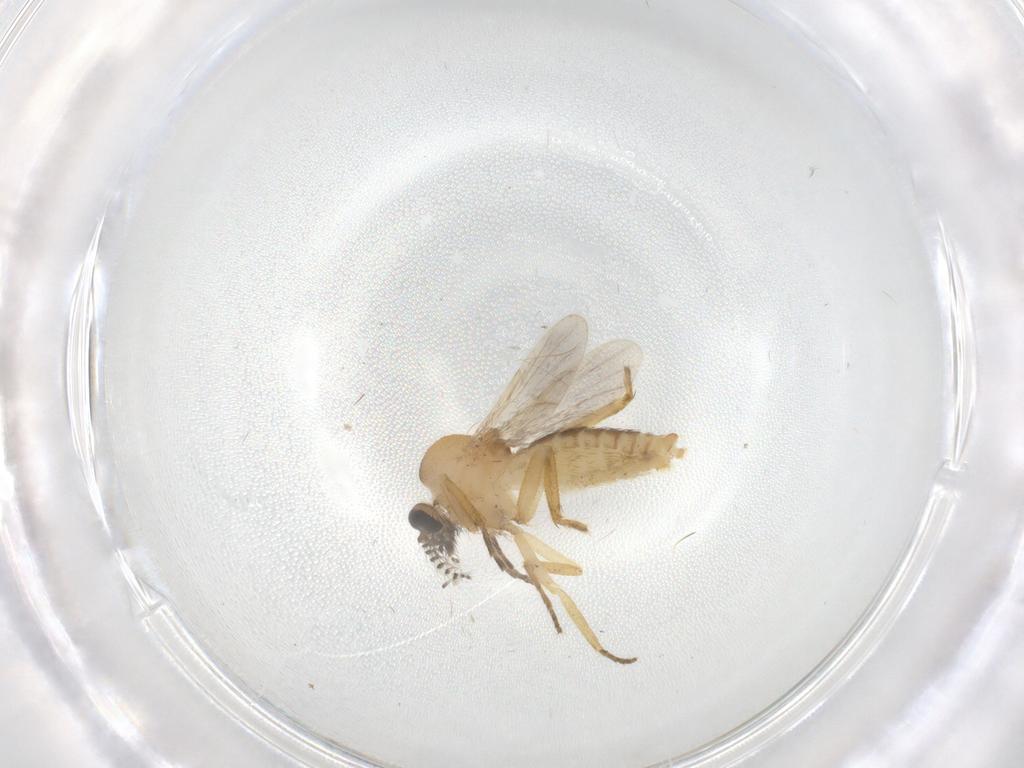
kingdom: Animalia
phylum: Arthropoda
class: Insecta
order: Diptera
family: Ceratopogonidae
